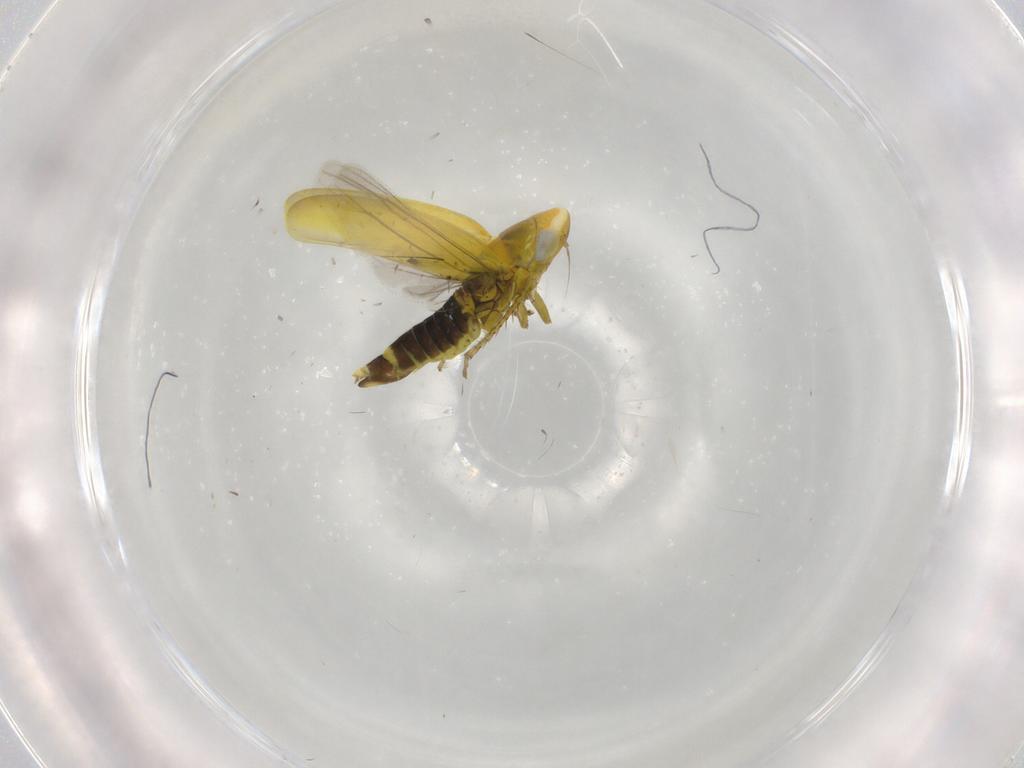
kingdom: Animalia
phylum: Arthropoda
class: Insecta
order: Hemiptera
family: Cicadellidae
